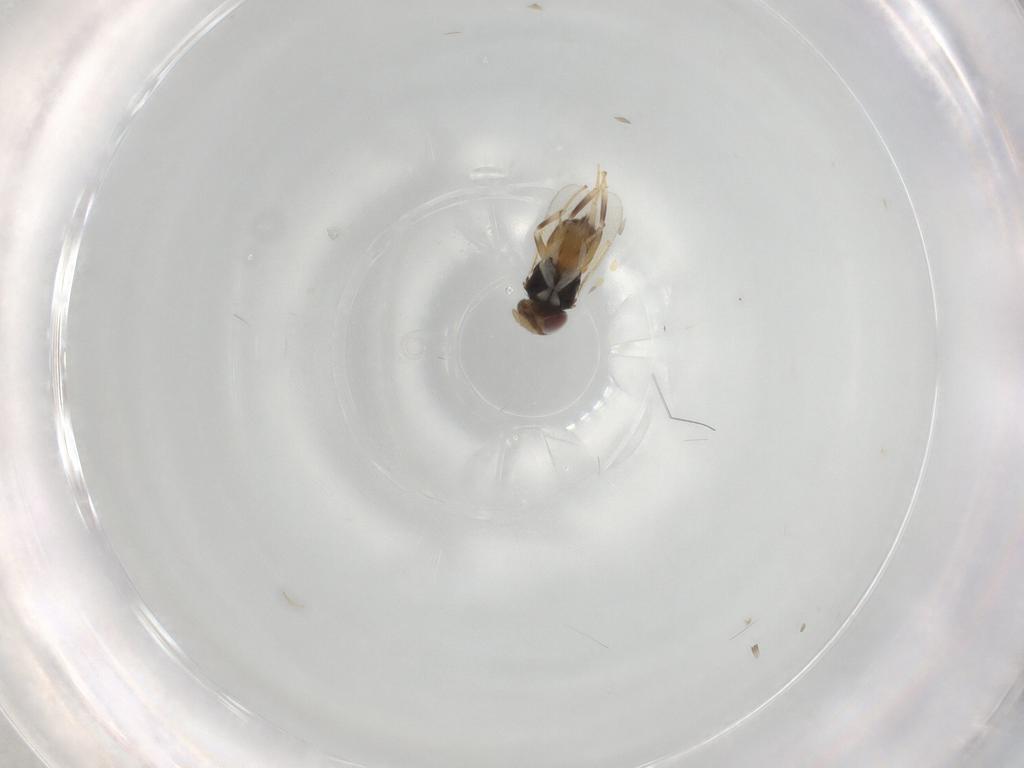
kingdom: Animalia
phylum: Arthropoda
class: Insecta
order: Hymenoptera
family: Aphelinidae
